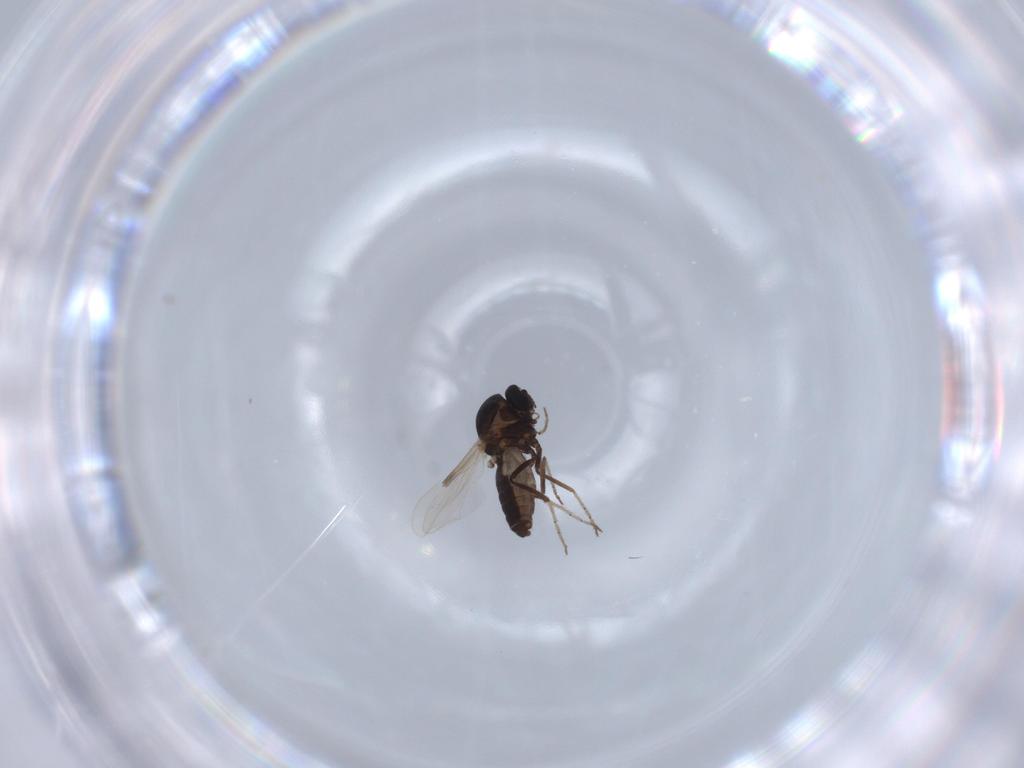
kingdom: Animalia
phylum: Arthropoda
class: Insecta
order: Diptera
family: Ceratopogonidae
